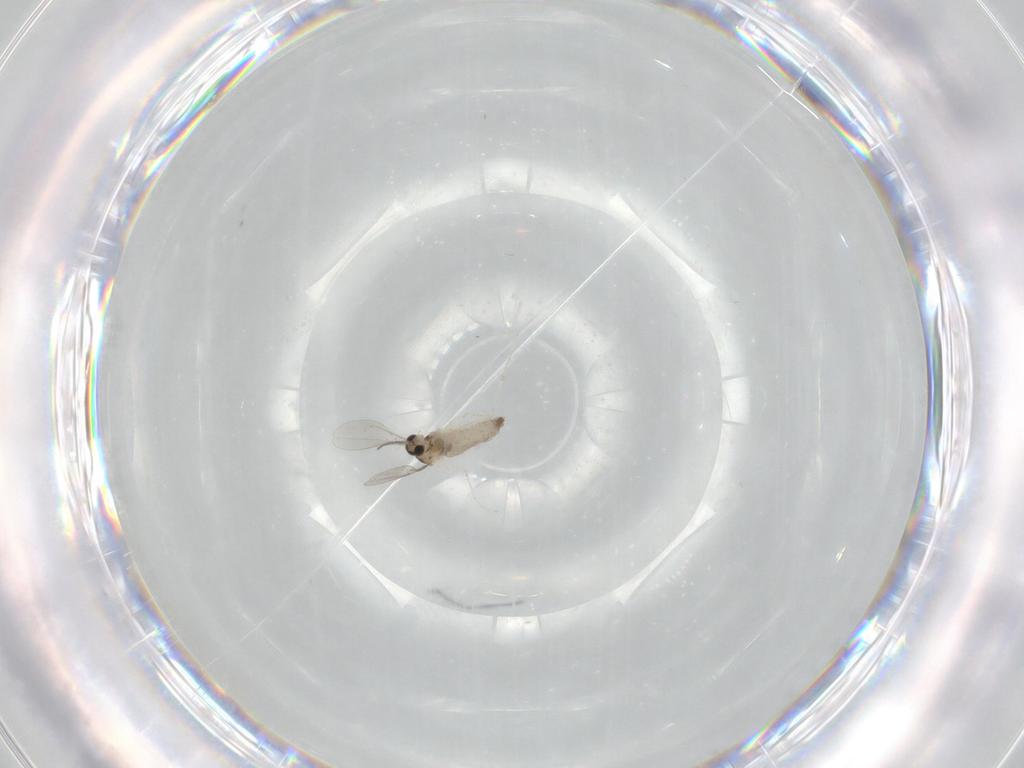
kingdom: Animalia
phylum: Arthropoda
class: Insecta
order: Diptera
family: Cecidomyiidae
